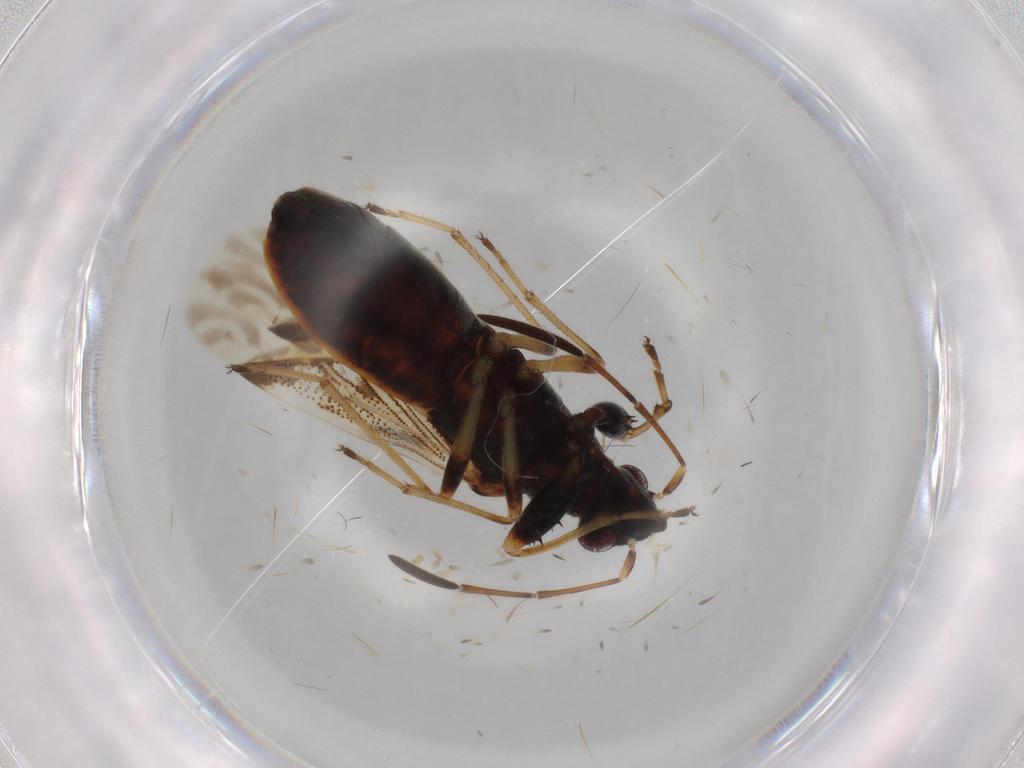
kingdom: Animalia
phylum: Arthropoda
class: Insecta
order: Hemiptera
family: Rhyparochromidae
